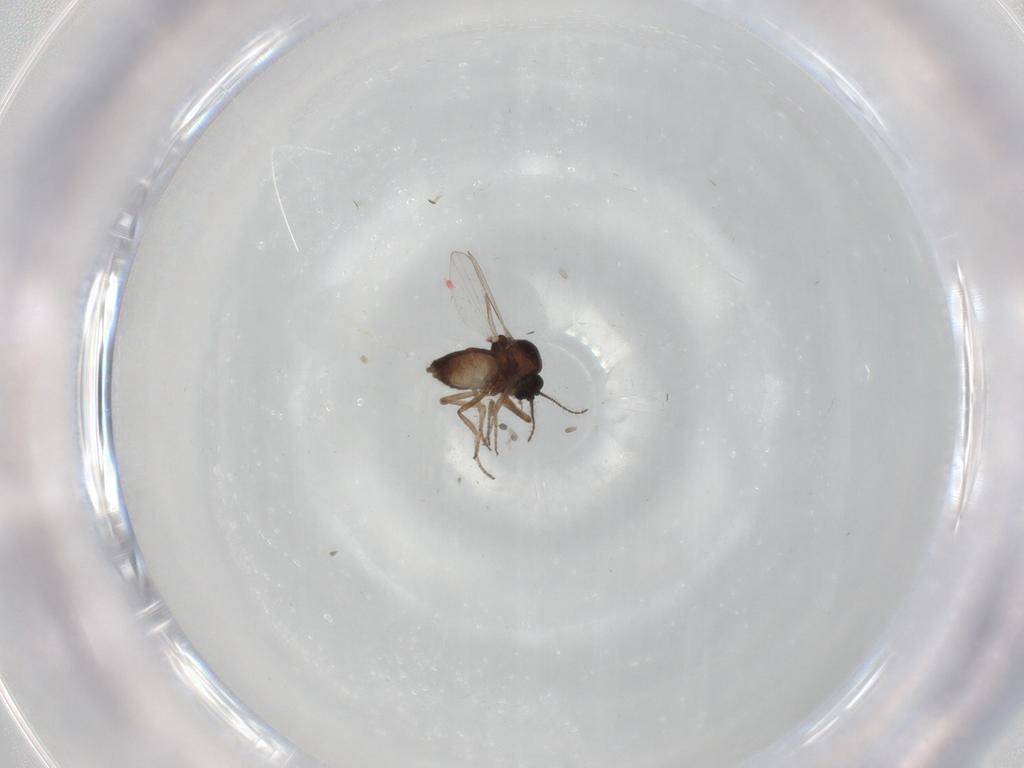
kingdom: Animalia
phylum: Arthropoda
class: Insecta
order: Diptera
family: Ceratopogonidae
